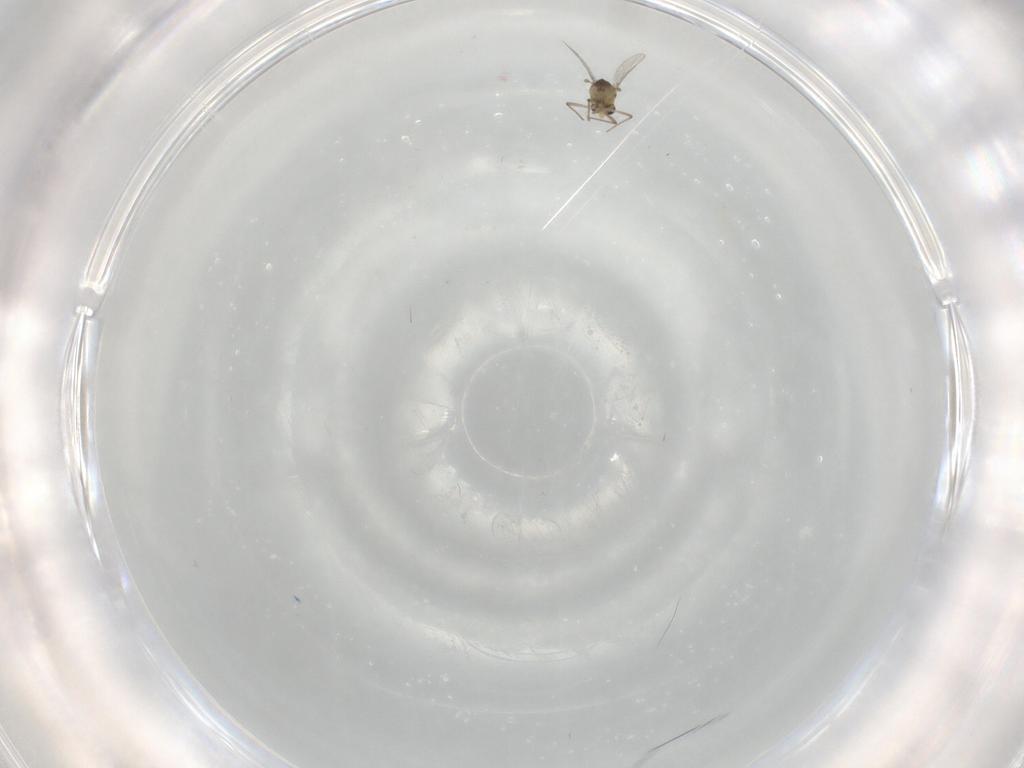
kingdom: Animalia
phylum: Arthropoda
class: Insecta
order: Diptera
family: Chironomidae
